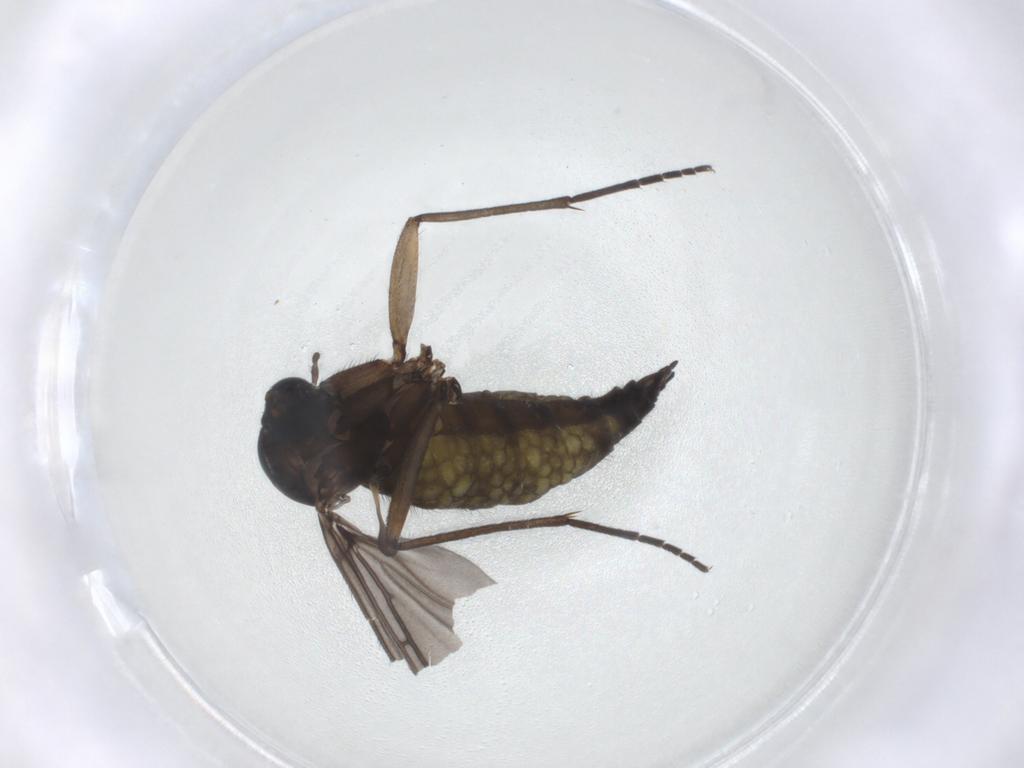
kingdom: Animalia
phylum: Arthropoda
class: Insecta
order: Diptera
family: Sciaridae
